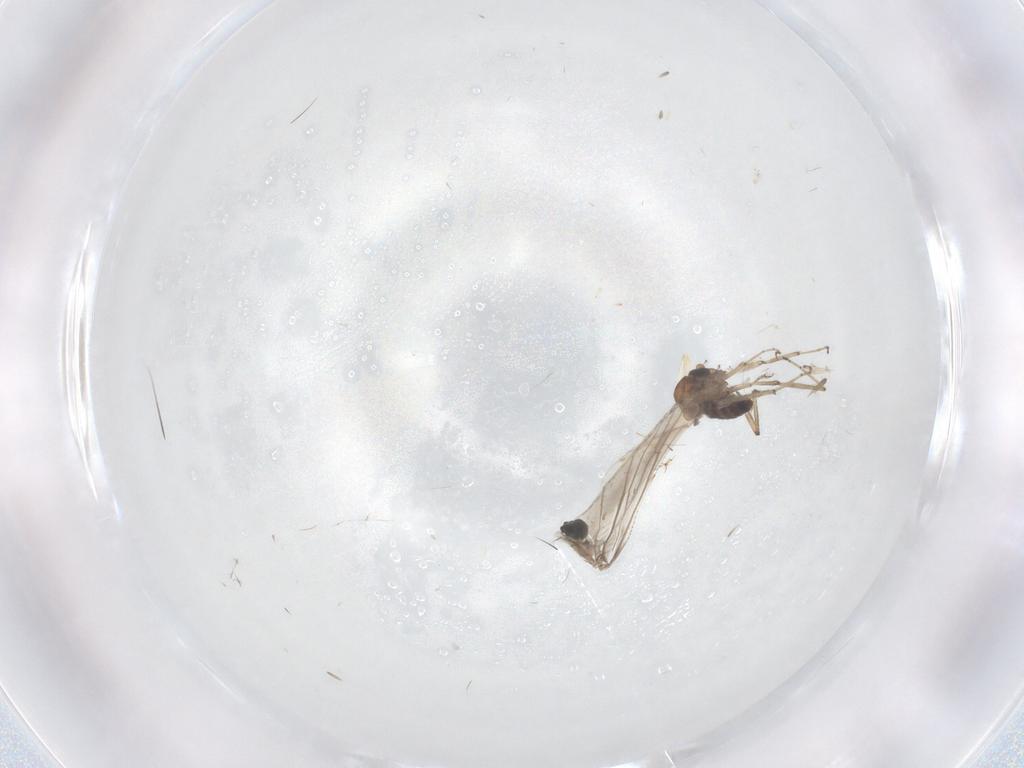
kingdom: Animalia
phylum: Arthropoda
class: Insecta
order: Diptera
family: Ceratopogonidae
